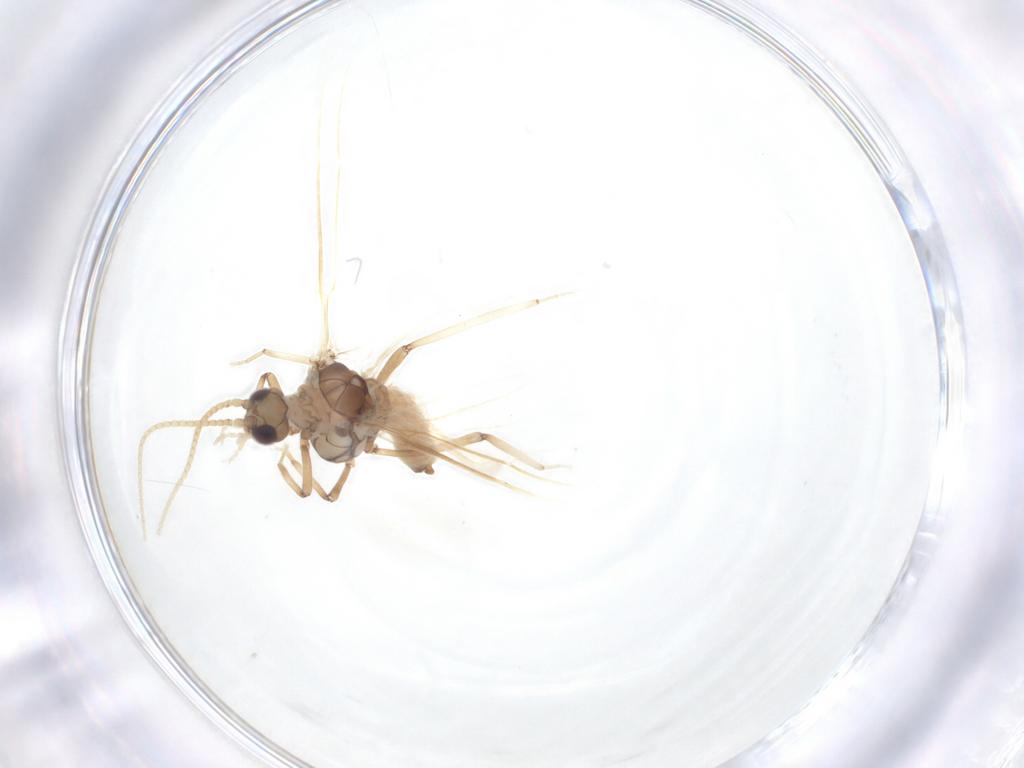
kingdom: Animalia
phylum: Arthropoda
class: Insecta
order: Neuroptera
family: Coniopterygidae
